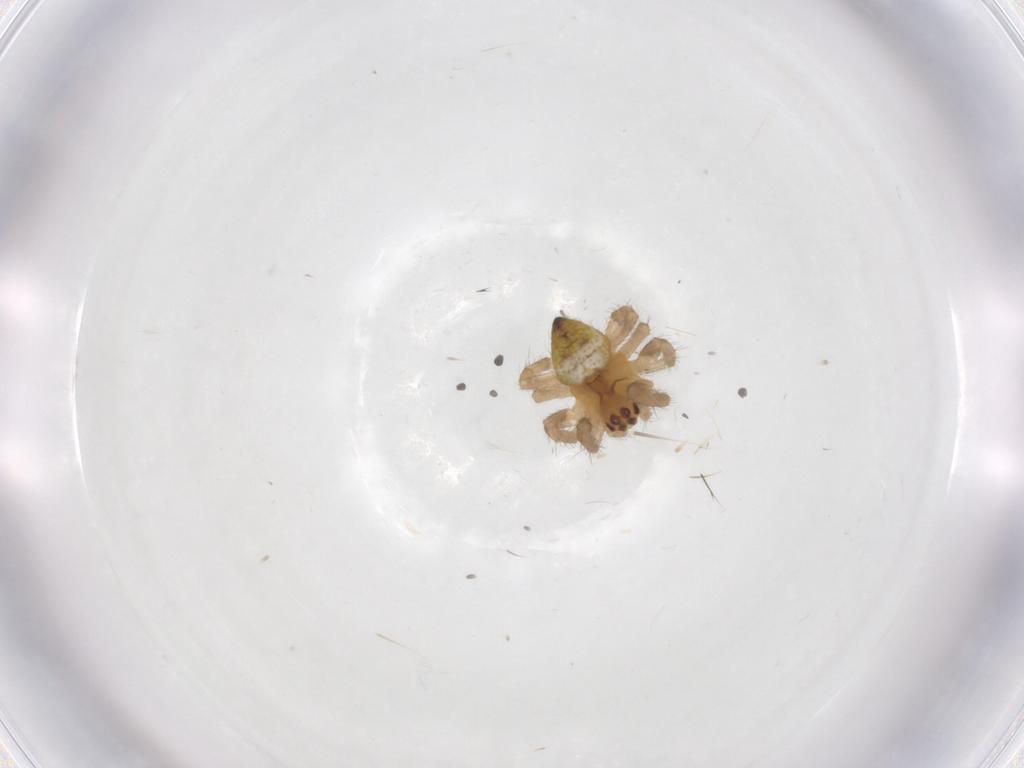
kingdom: Animalia
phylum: Arthropoda
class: Arachnida
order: Araneae
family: Araneidae
